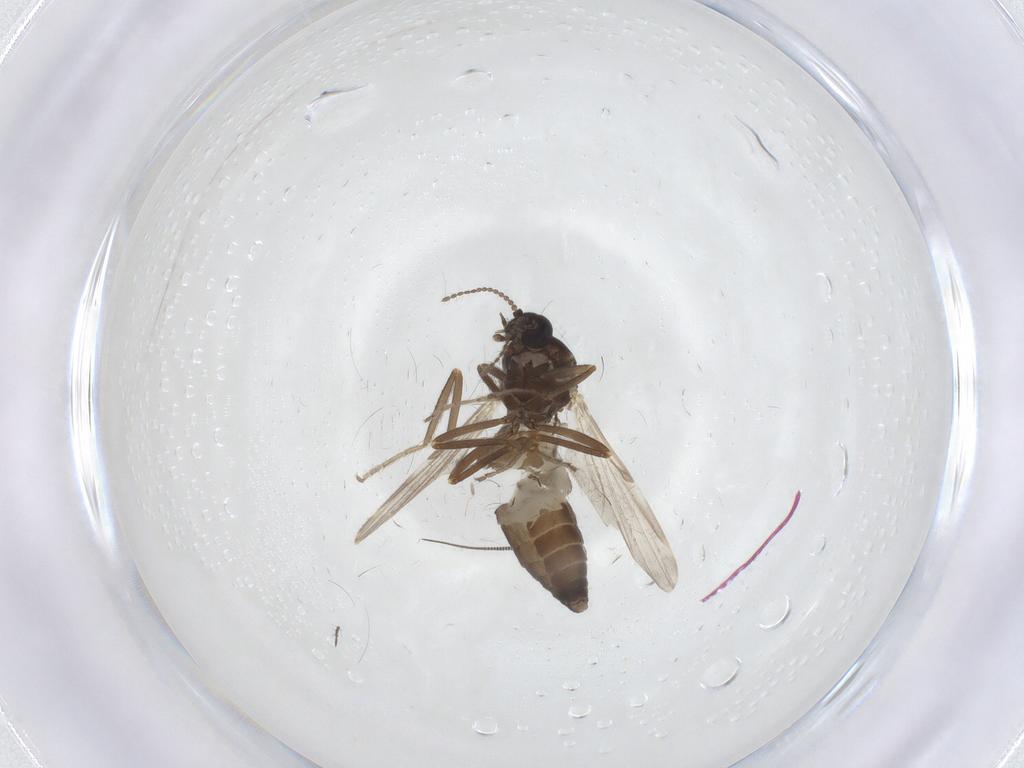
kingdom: Animalia
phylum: Arthropoda
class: Insecta
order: Diptera
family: Ceratopogonidae
